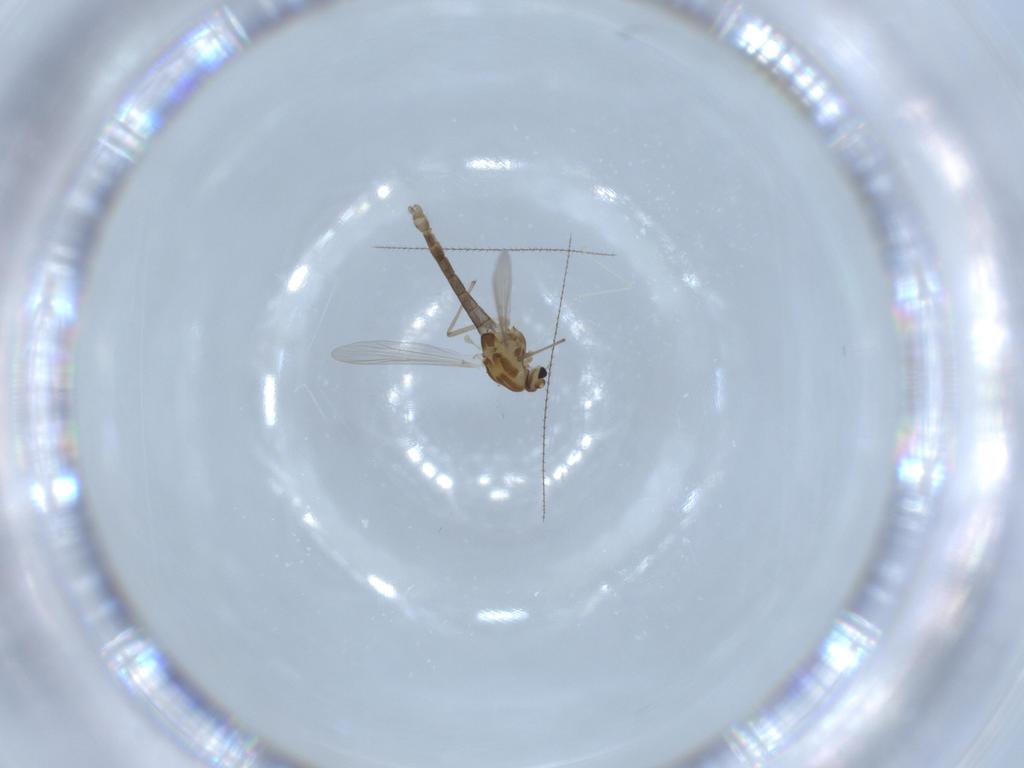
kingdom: Animalia
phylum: Arthropoda
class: Insecta
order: Diptera
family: Chironomidae
